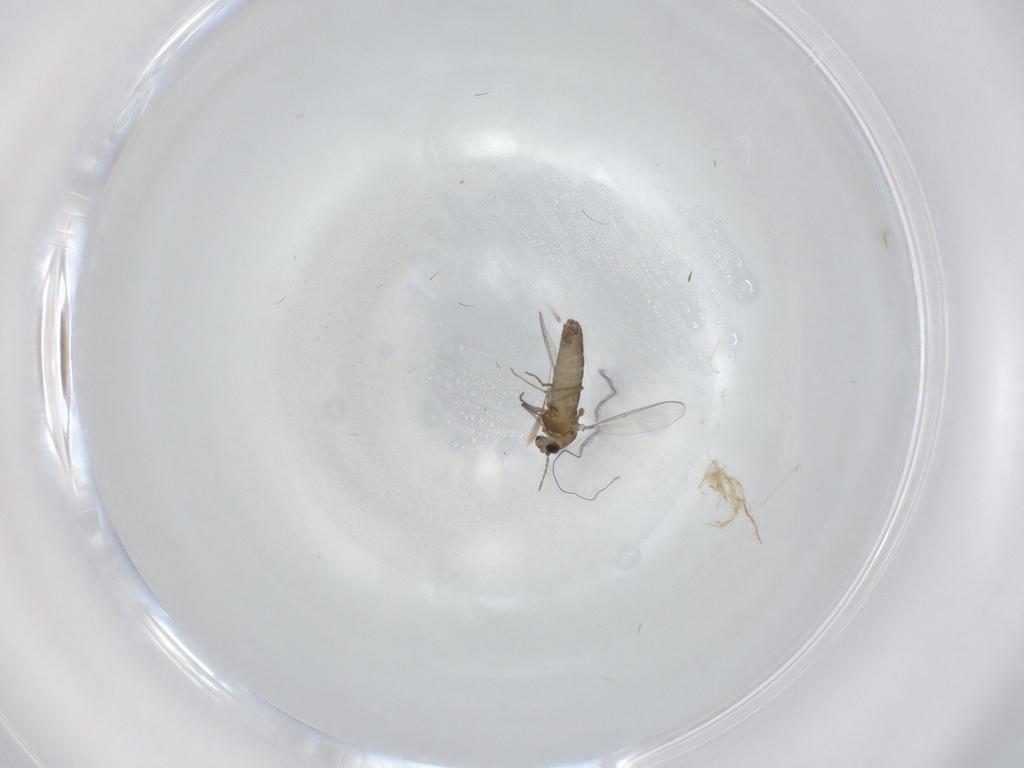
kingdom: Animalia
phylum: Arthropoda
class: Insecta
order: Diptera
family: Chironomidae
